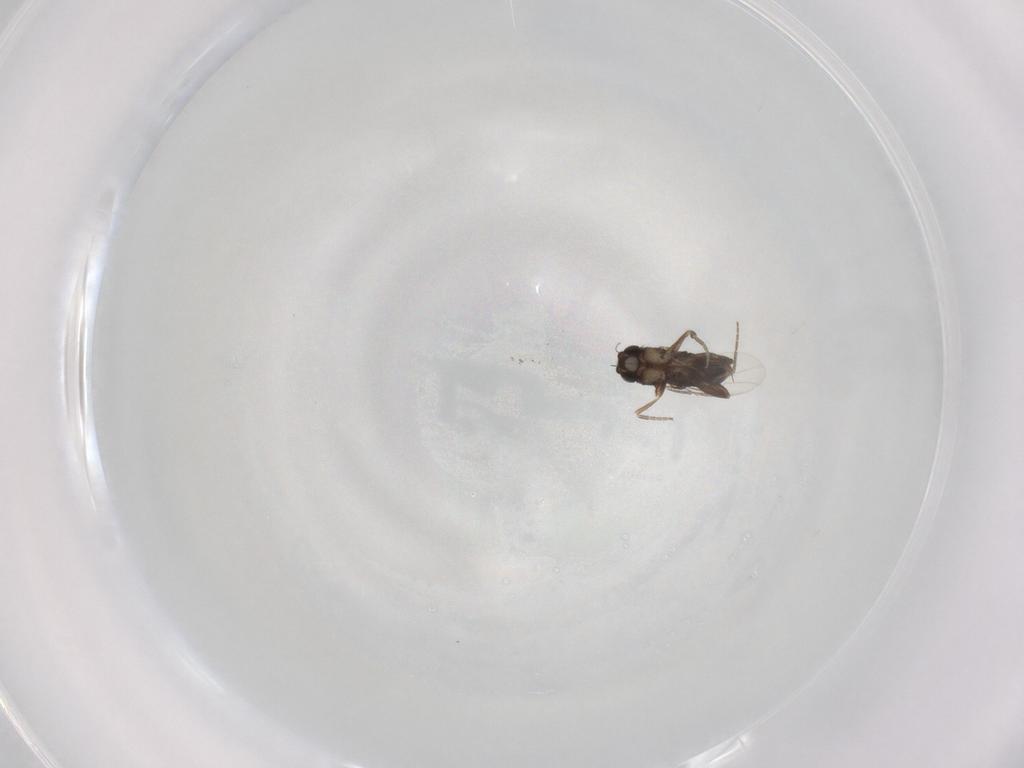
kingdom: Animalia
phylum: Arthropoda
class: Insecta
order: Diptera
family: Phoridae
